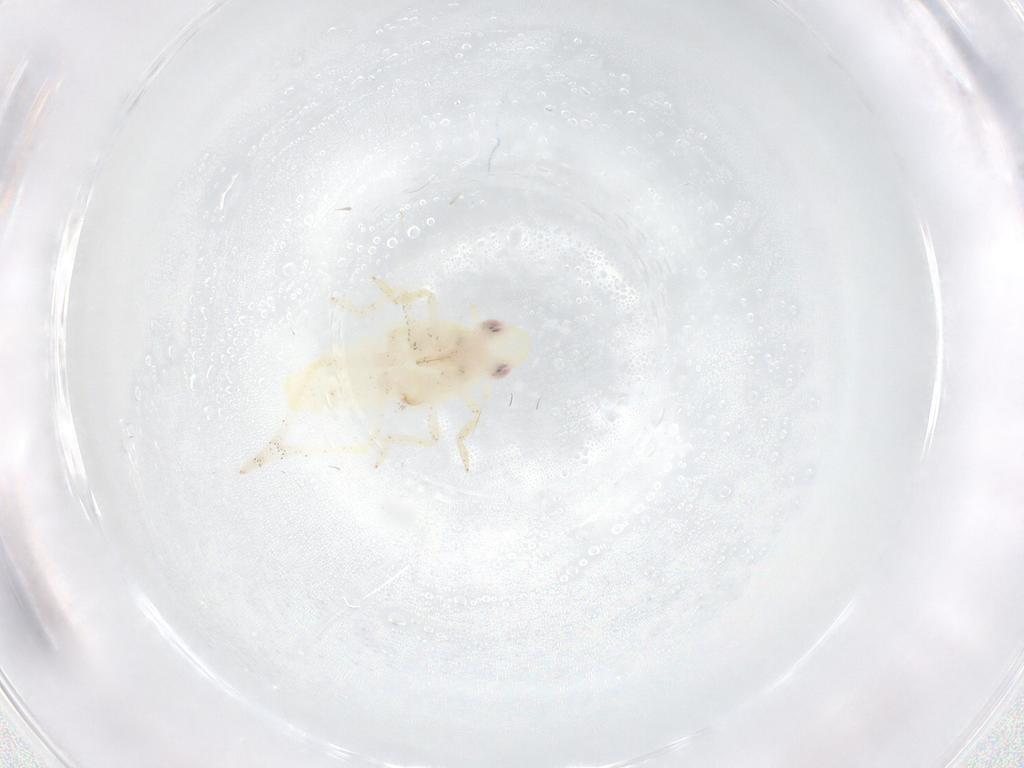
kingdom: Animalia
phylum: Arthropoda
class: Insecta
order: Hemiptera
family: Tropiduchidae
